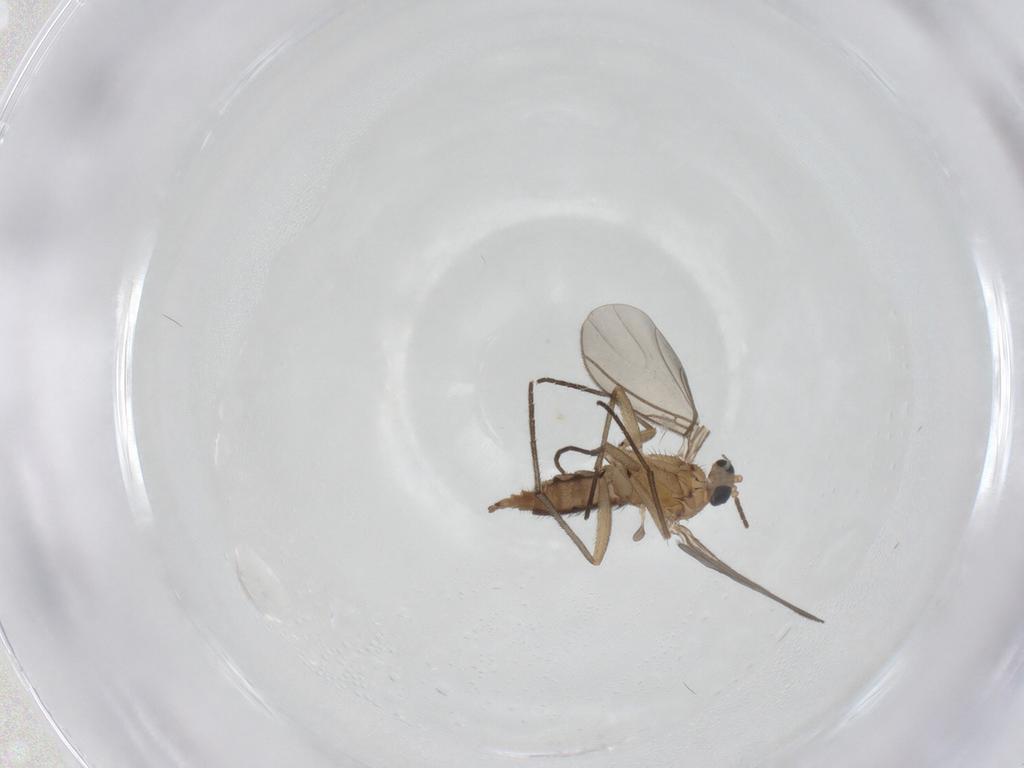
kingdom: Animalia
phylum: Arthropoda
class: Insecta
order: Diptera
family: Sciaridae
